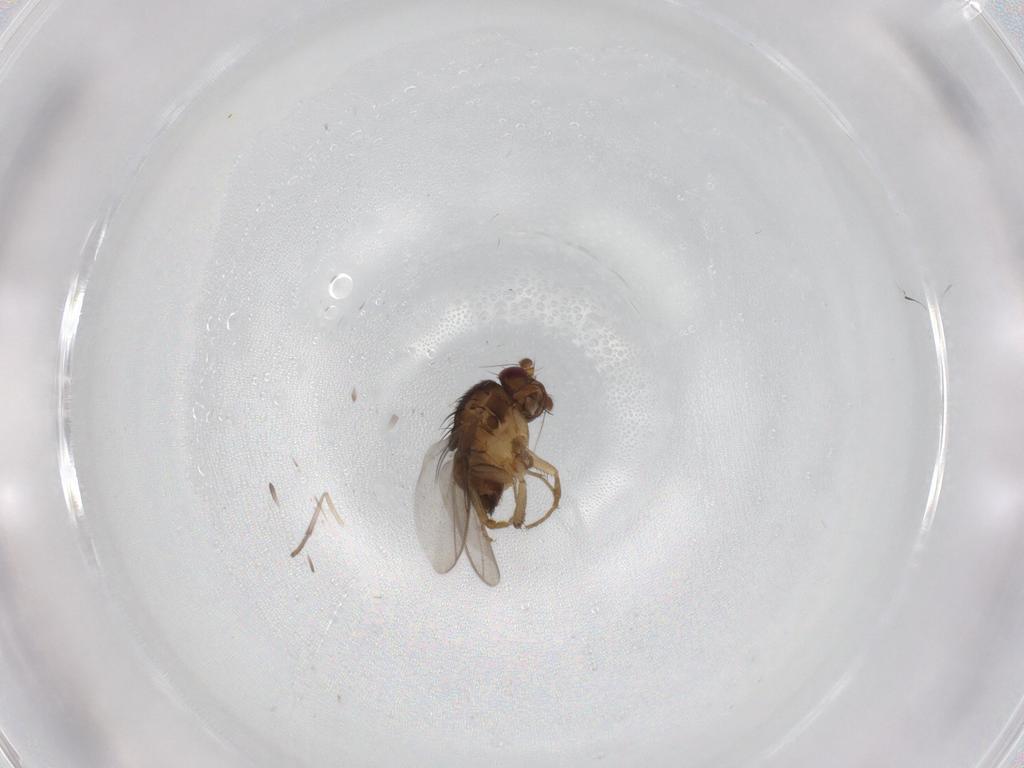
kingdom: Animalia
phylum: Arthropoda
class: Insecta
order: Diptera
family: Sphaeroceridae
